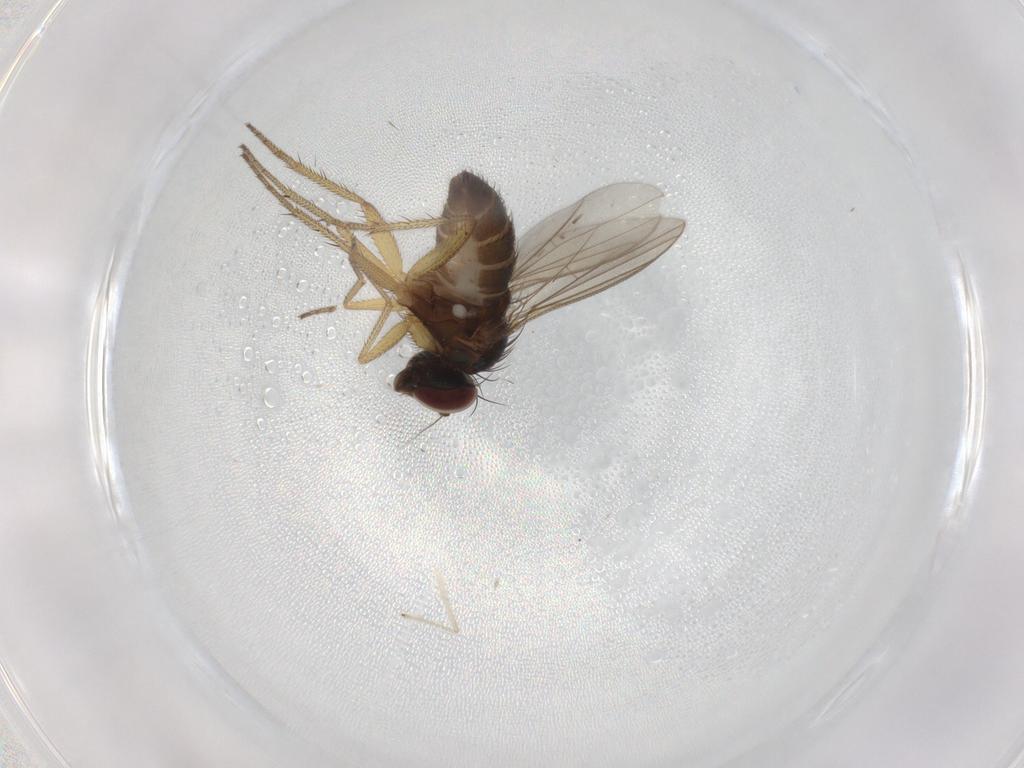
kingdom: Animalia
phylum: Arthropoda
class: Insecta
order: Diptera
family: Dolichopodidae
